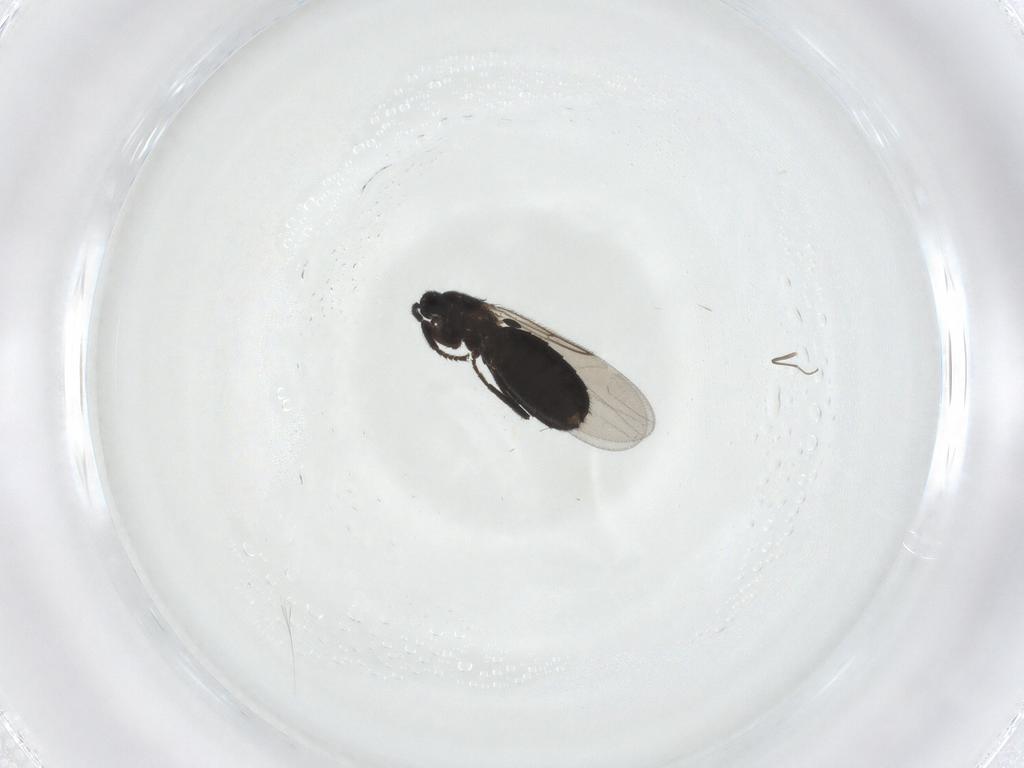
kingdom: Animalia
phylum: Arthropoda
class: Insecta
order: Diptera
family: Scatopsidae
